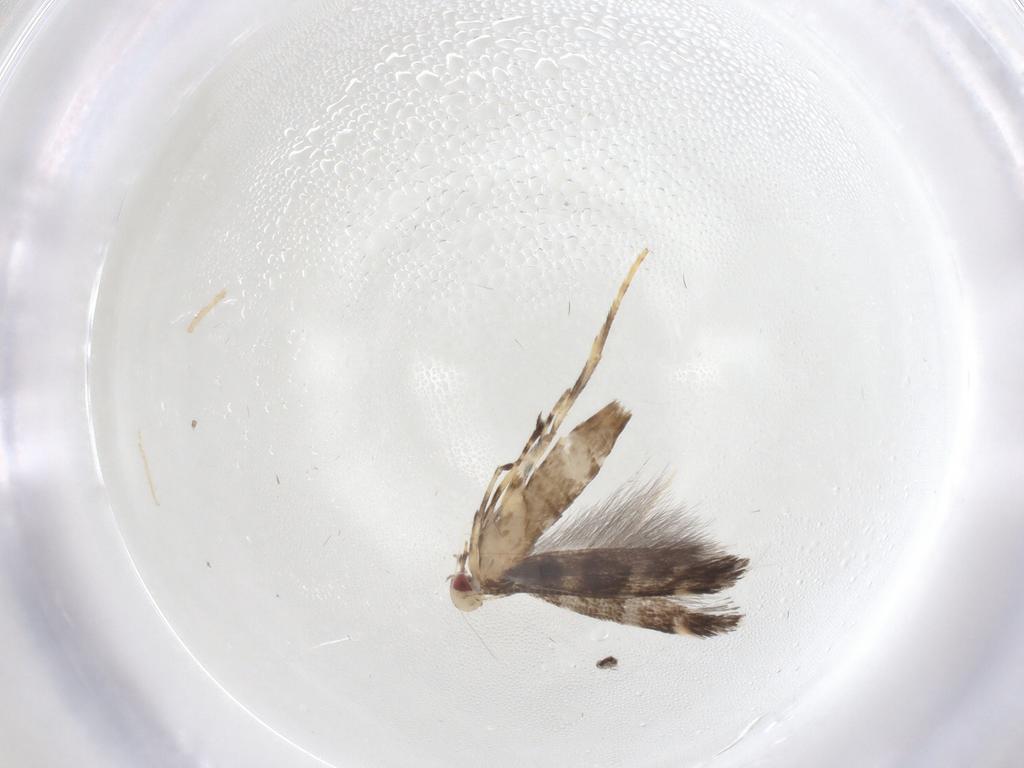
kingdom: Animalia
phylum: Arthropoda
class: Insecta
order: Lepidoptera
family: Gracillariidae
